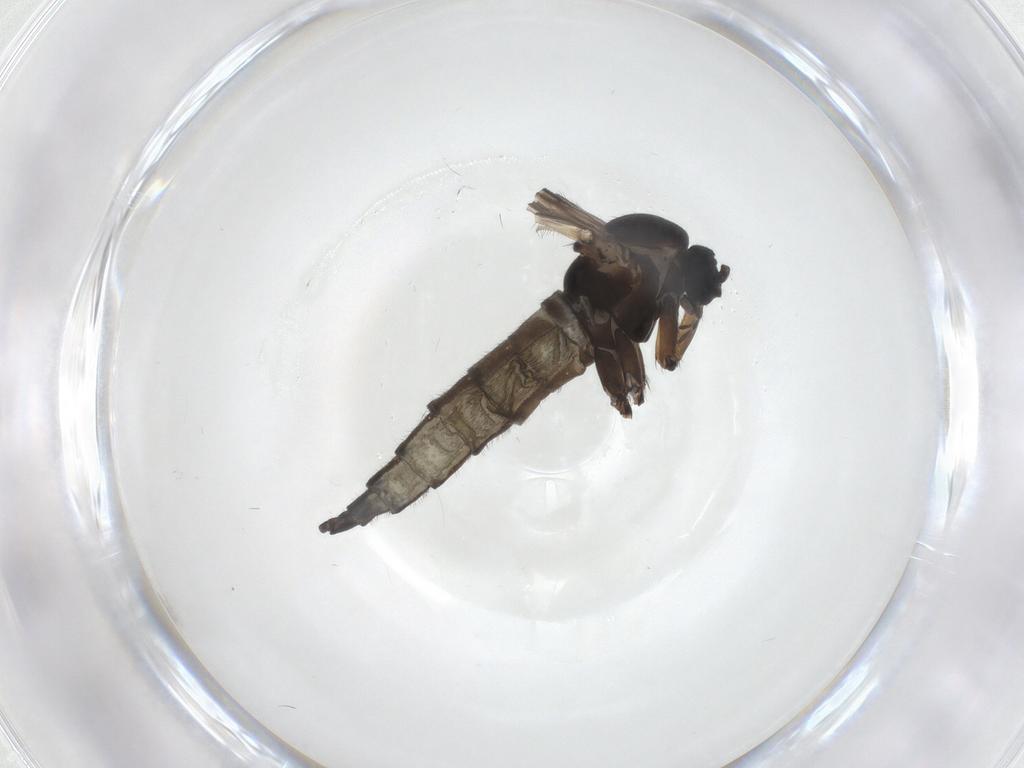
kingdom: Animalia
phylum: Arthropoda
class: Insecta
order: Diptera
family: Sciaridae
